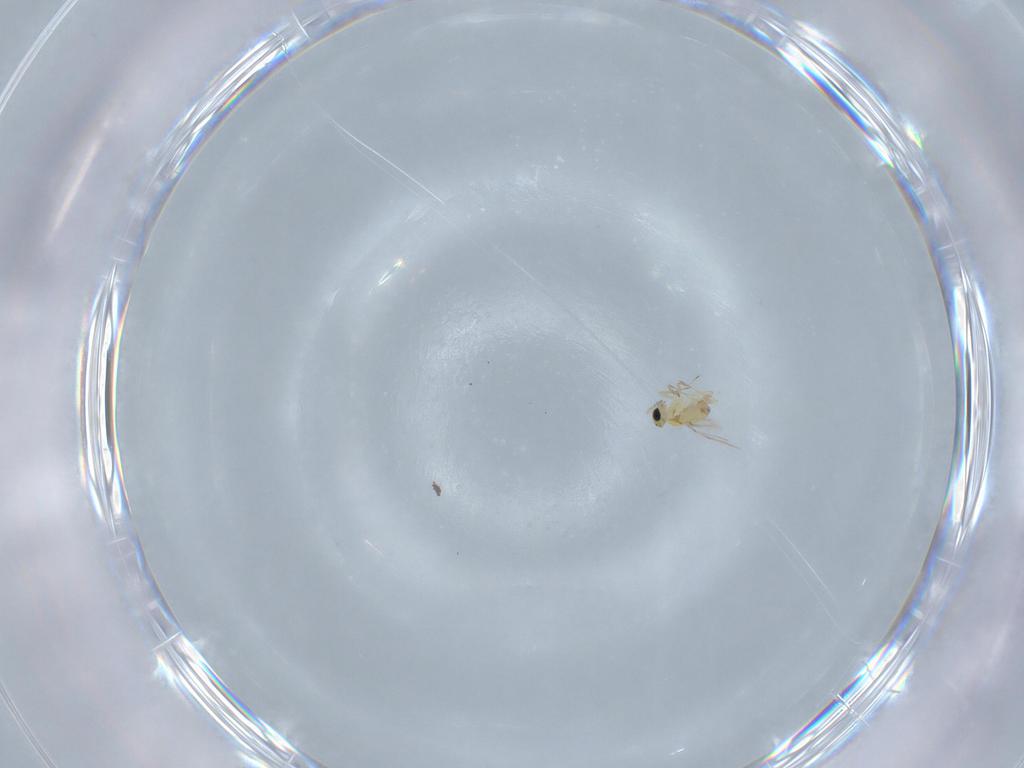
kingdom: Animalia
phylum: Arthropoda
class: Insecta
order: Hymenoptera
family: Trichogrammatidae
